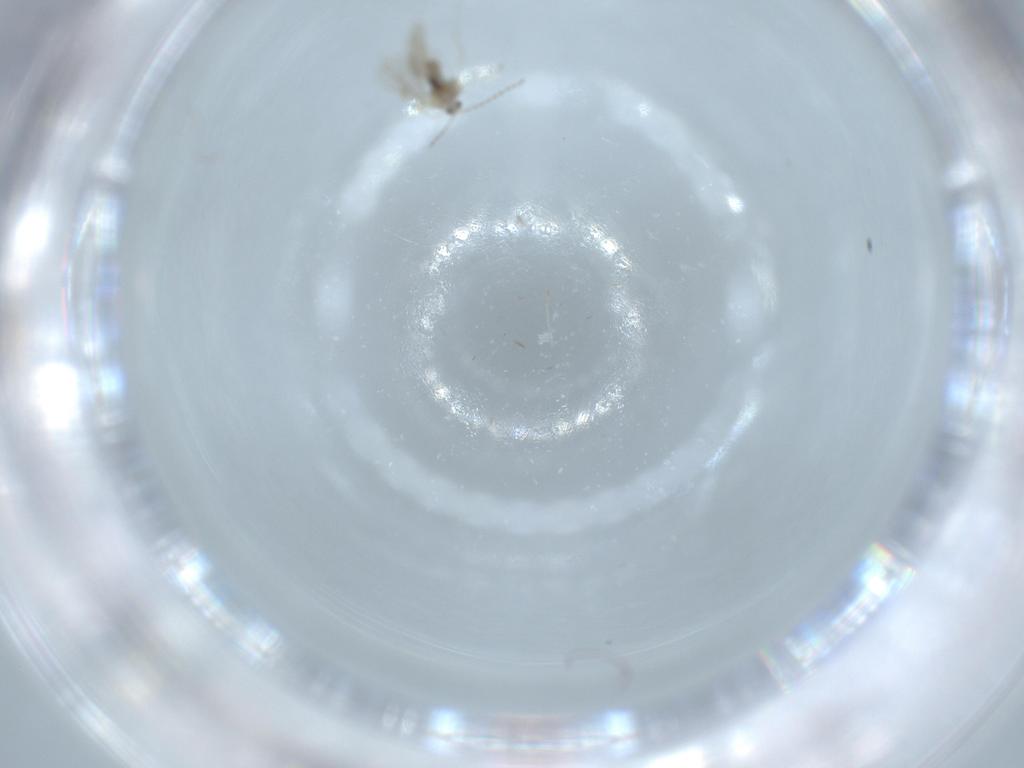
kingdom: Animalia
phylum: Arthropoda
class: Insecta
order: Diptera
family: Cecidomyiidae
